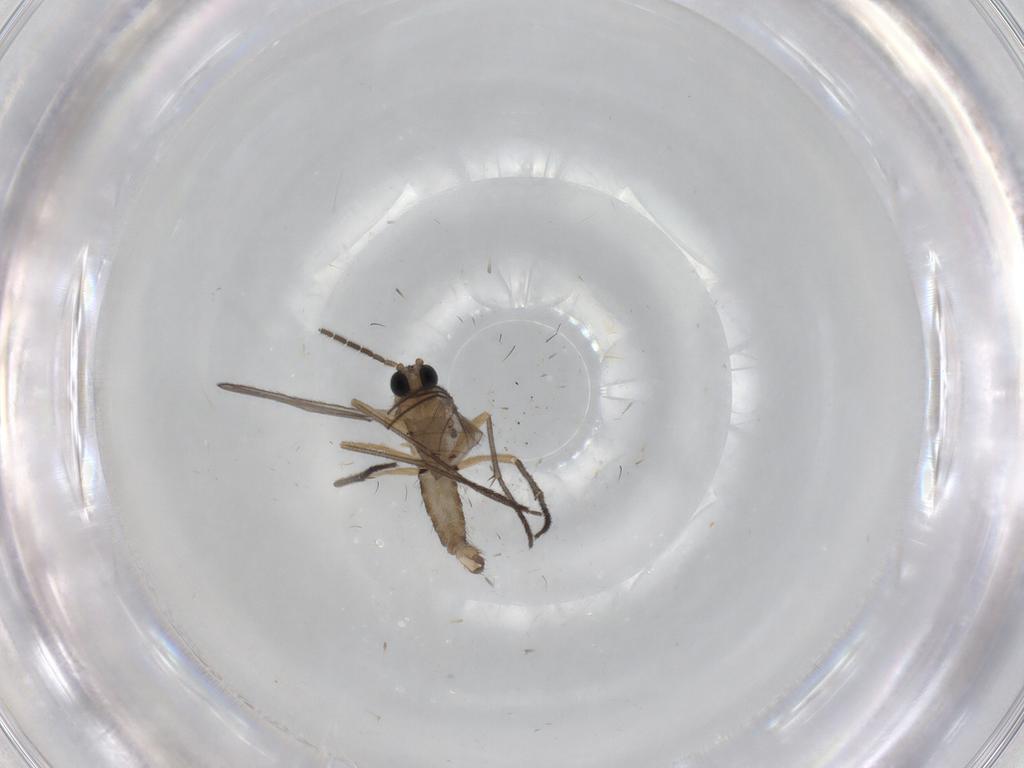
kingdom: Animalia
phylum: Arthropoda
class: Insecta
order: Diptera
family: Sciaridae
